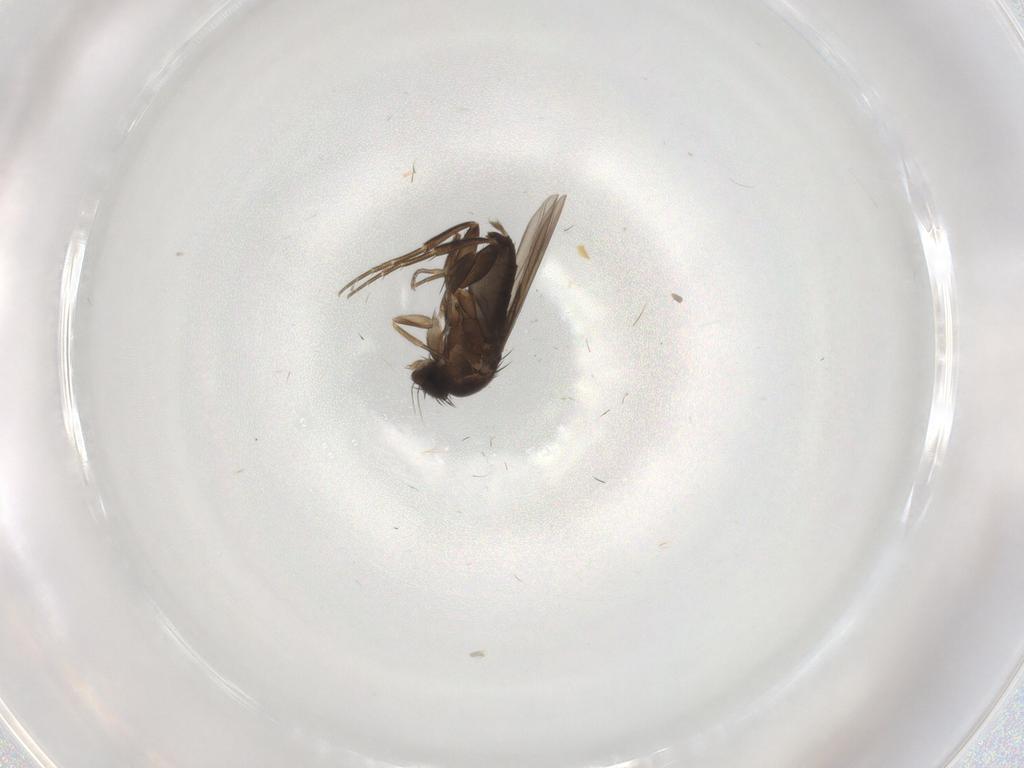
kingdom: Animalia
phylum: Arthropoda
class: Insecta
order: Diptera
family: Phoridae
